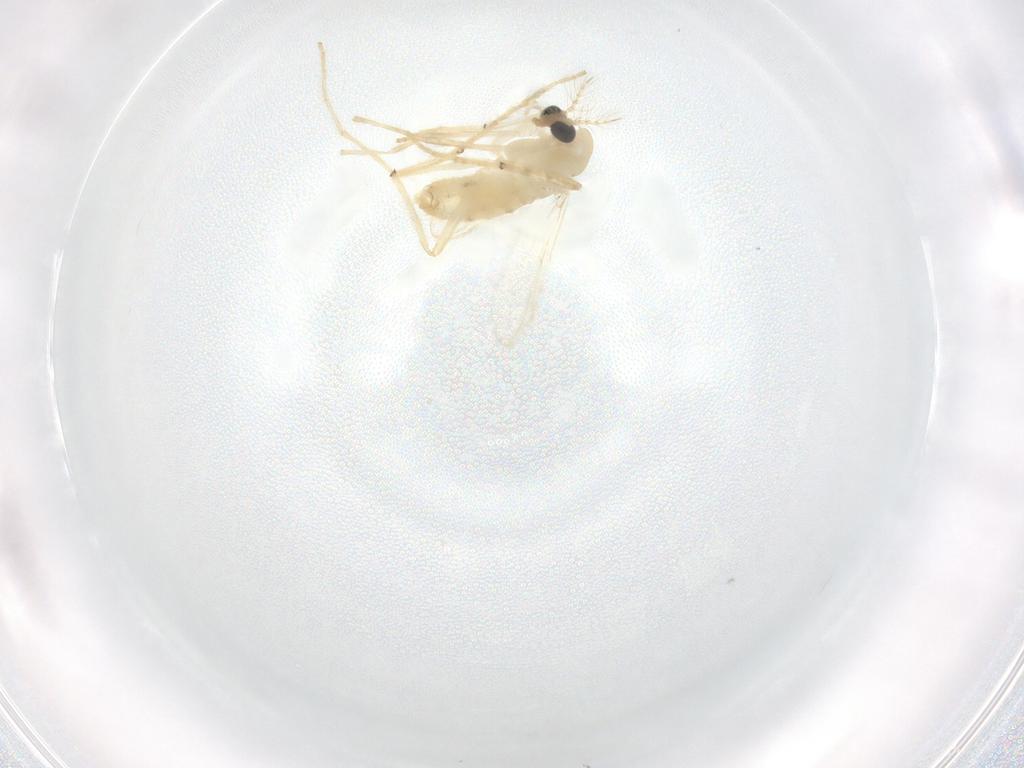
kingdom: Animalia
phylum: Arthropoda
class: Insecta
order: Diptera
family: Chironomidae
